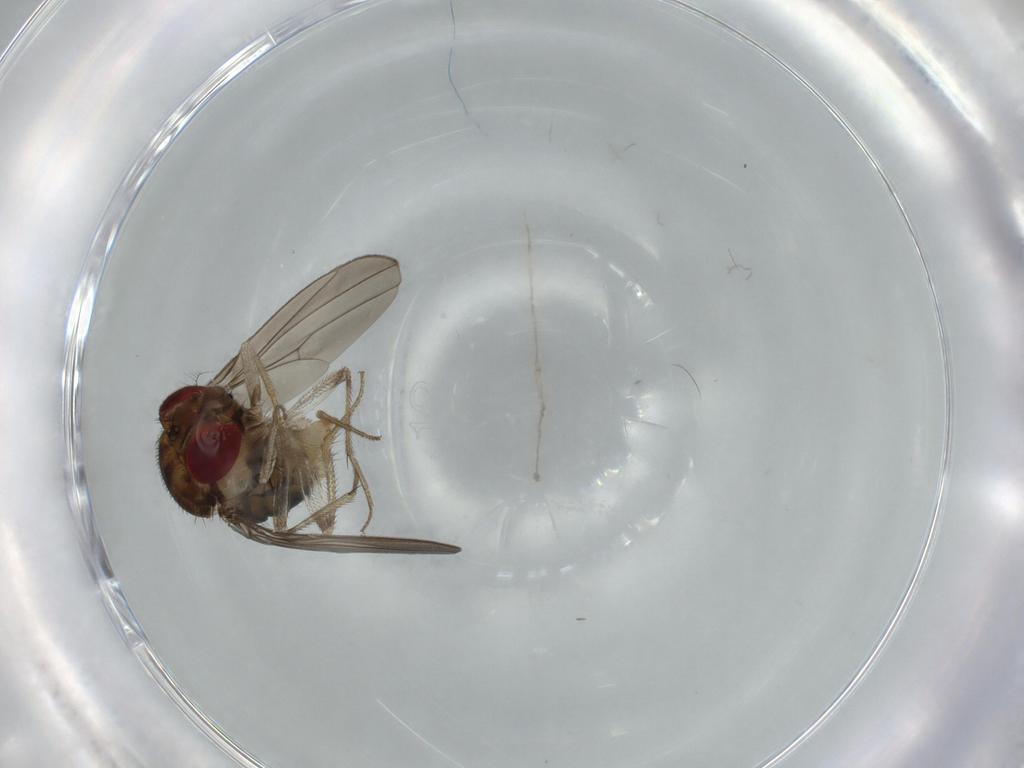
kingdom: Animalia
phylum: Arthropoda
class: Insecta
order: Diptera
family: Drosophilidae
